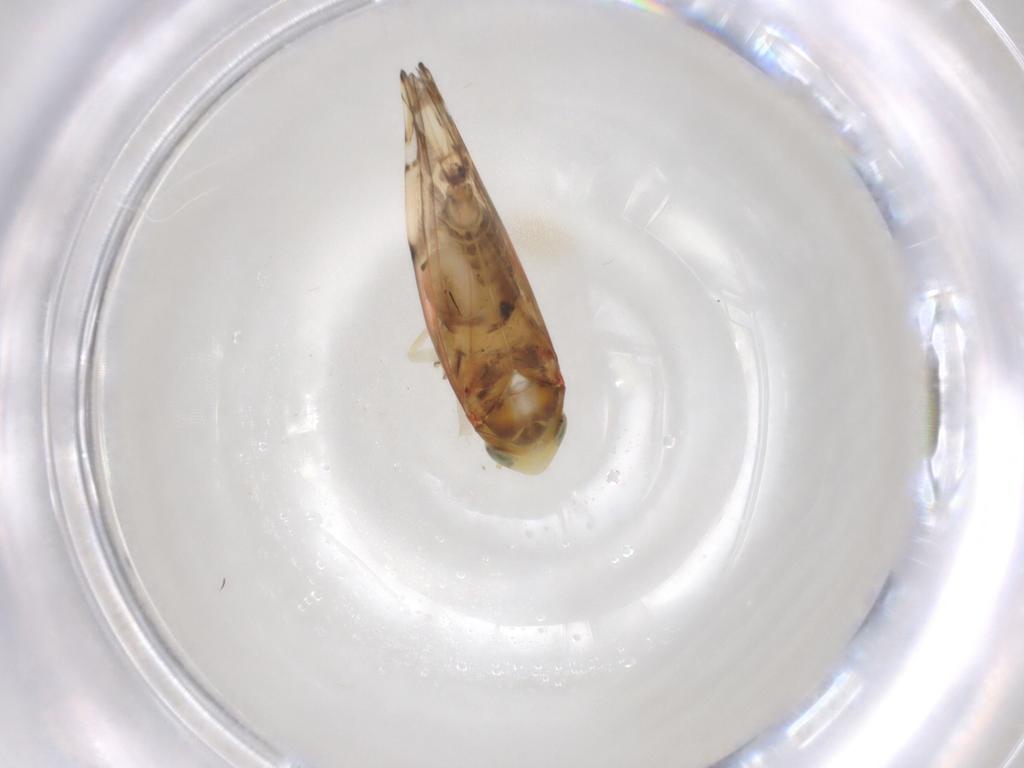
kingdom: Animalia
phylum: Arthropoda
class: Insecta
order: Hemiptera
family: Cicadellidae
